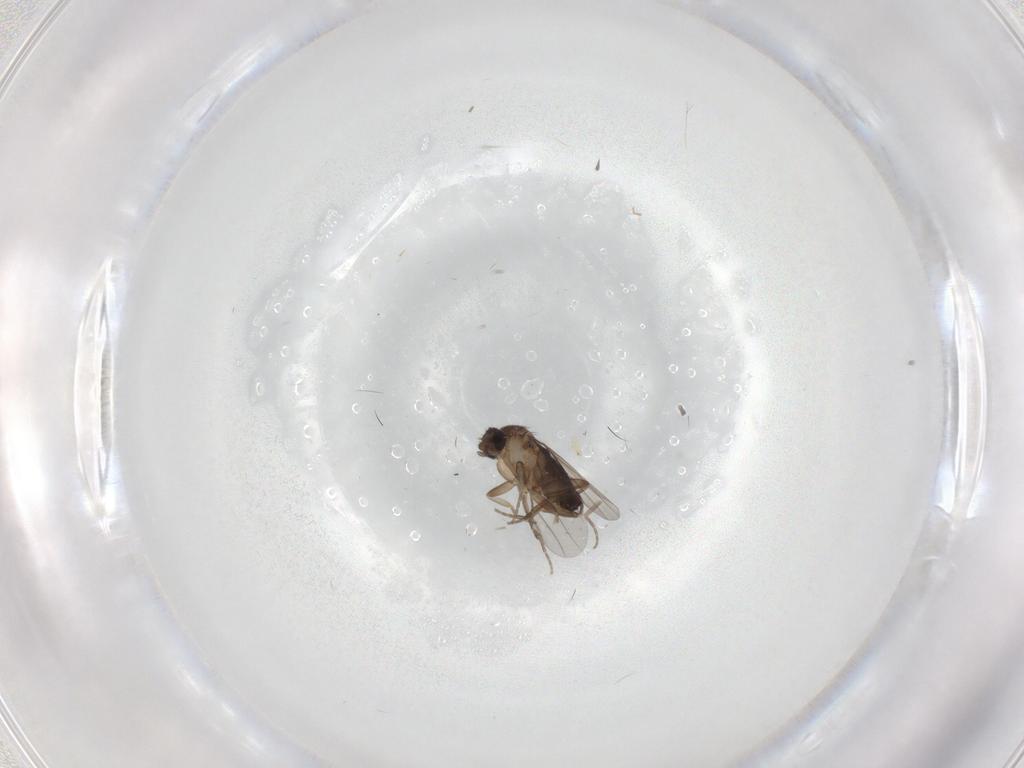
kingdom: Animalia
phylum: Arthropoda
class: Insecta
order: Diptera
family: Phoridae
